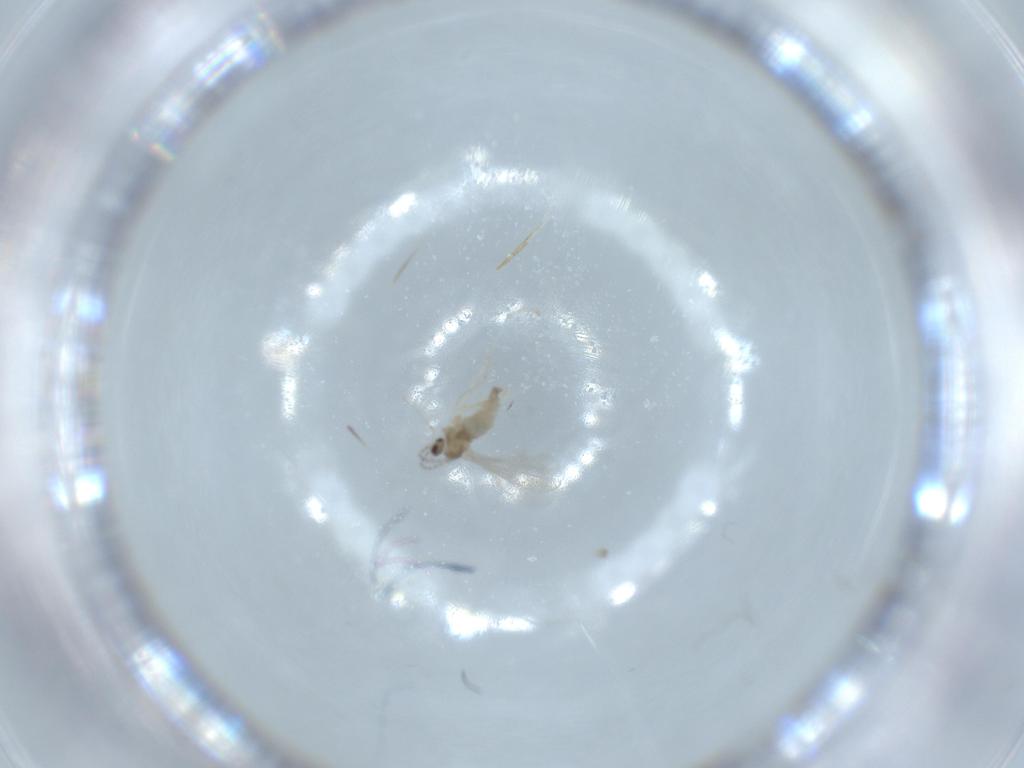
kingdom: Animalia
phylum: Arthropoda
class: Insecta
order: Diptera
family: Cecidomyiidae
